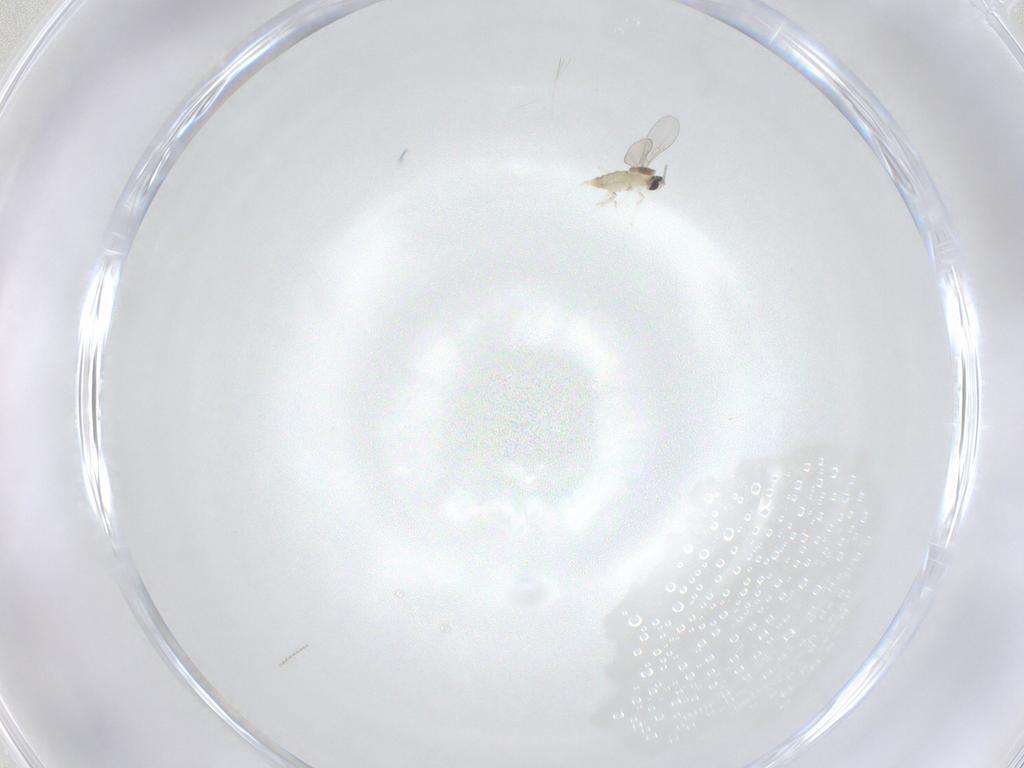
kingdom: Animalia
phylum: Arthropoda
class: Insecta
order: Diptera
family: Cecidomyiidae
